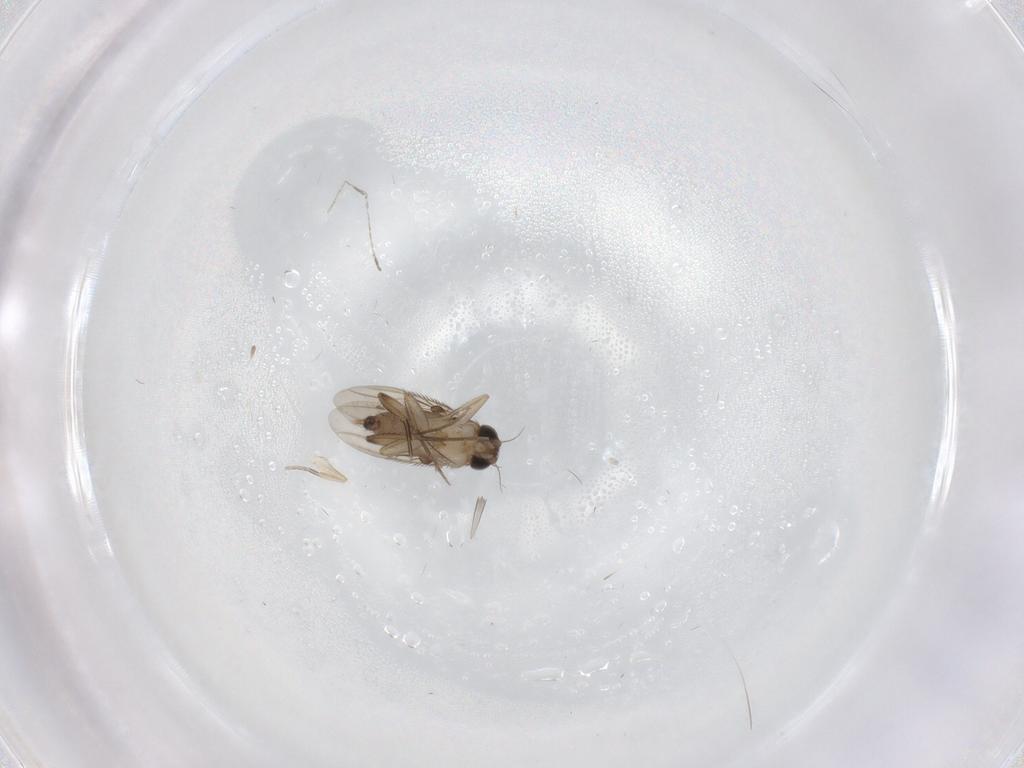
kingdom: Animalia
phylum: Arthropoda
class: Insecta
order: Diptera
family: Phoridae
